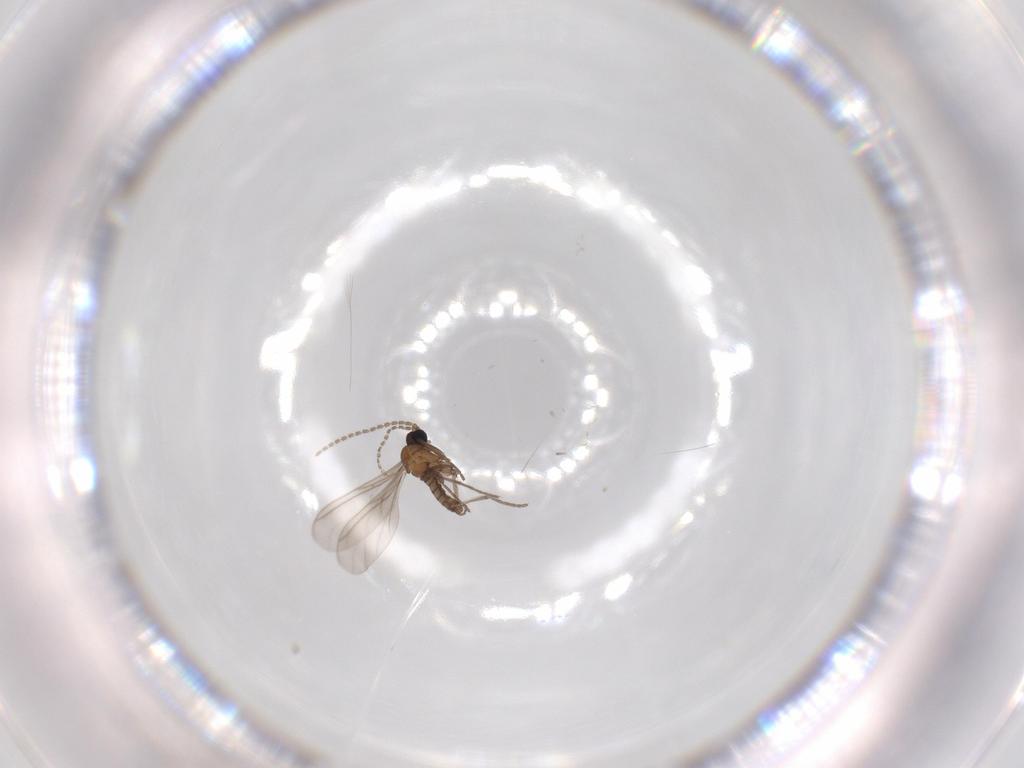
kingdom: Animalia
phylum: Arthropoda
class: Insecta
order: Diptera
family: Sciaridae
